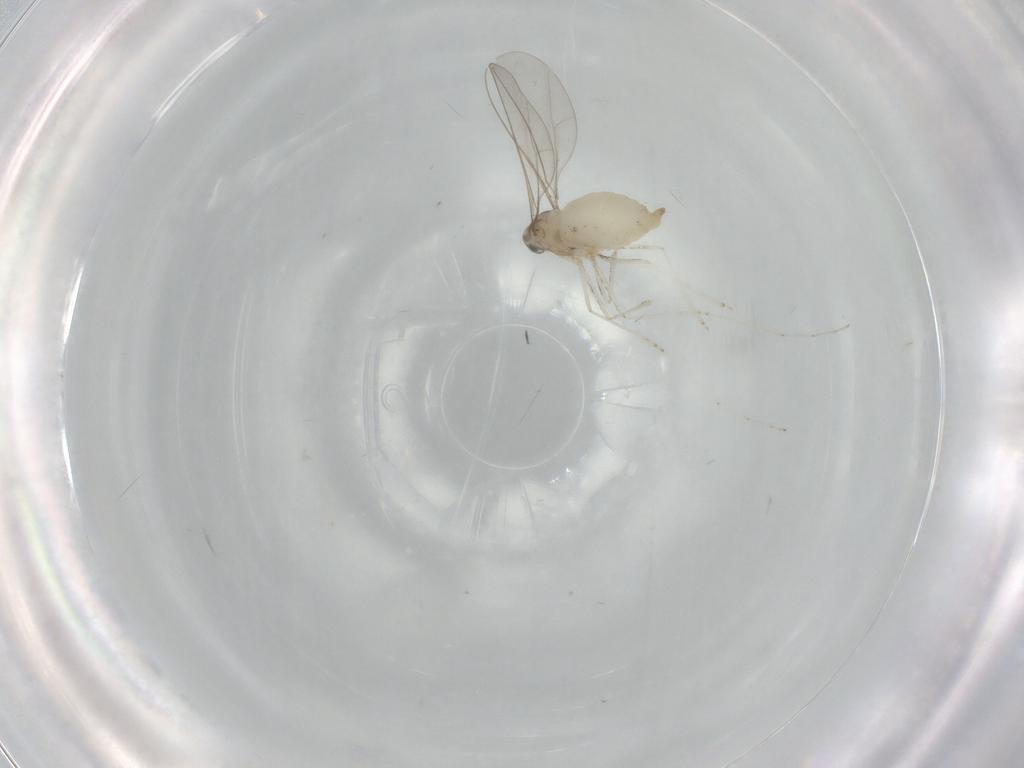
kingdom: Animalia
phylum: Arthropoda
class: Insecta
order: Diptera
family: Cecidomyiidae
